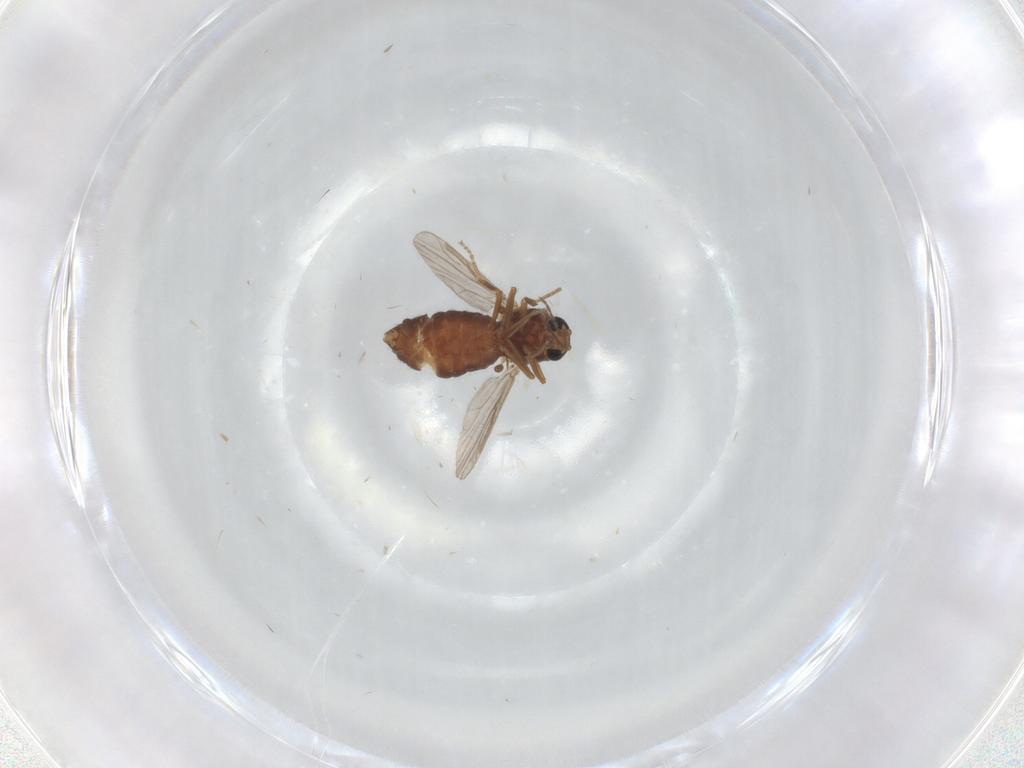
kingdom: Animalia
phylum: Arthropoda
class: Insecta
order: Diptera
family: Ceratopogonidae
